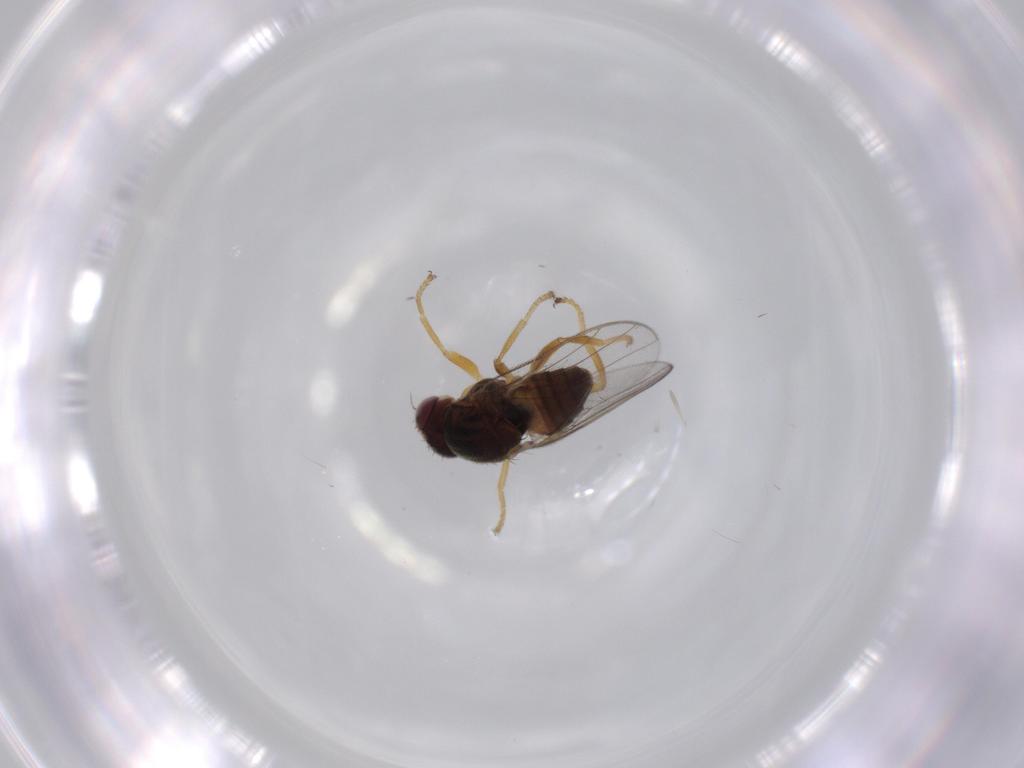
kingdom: Animalia
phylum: Arthropoda
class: Insecta
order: Diptera
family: Chloropidae
